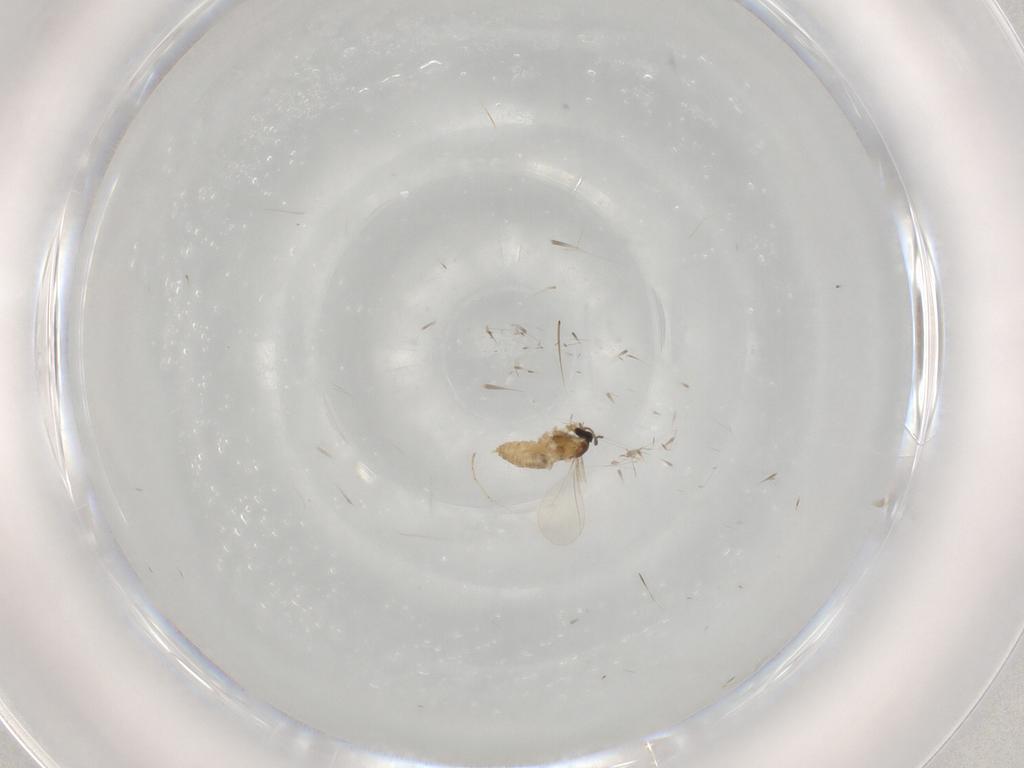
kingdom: Animalia
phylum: Arthropoda
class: Insecta
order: Diptera
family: Cecidomyiidae
